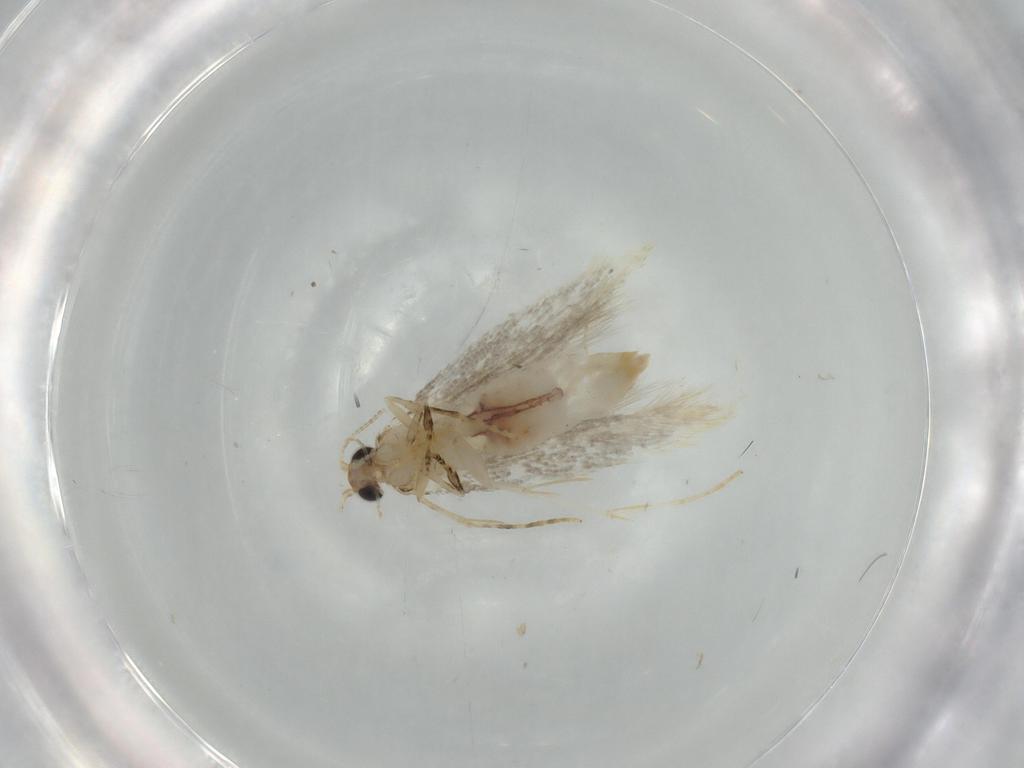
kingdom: Animalia
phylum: Arthropoda
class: Insecta
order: Lepidoptera
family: Tineidae
